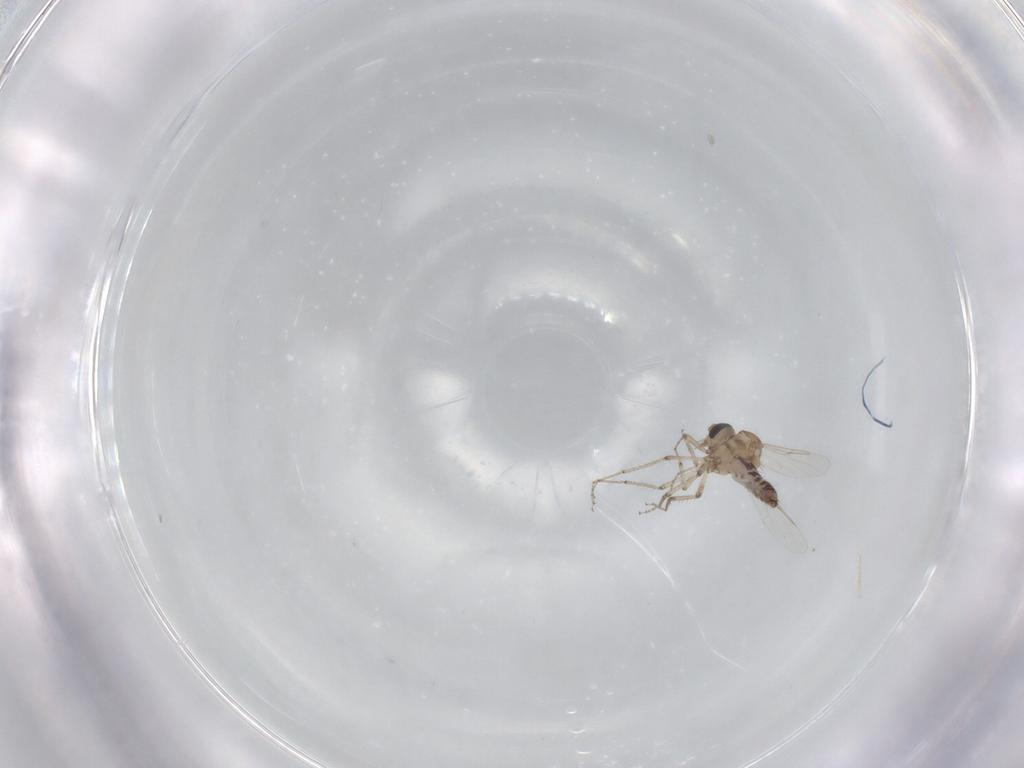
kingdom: Animalia
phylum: Arthropoda
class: Insecta
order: Diptera
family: Ceratopogonidae
